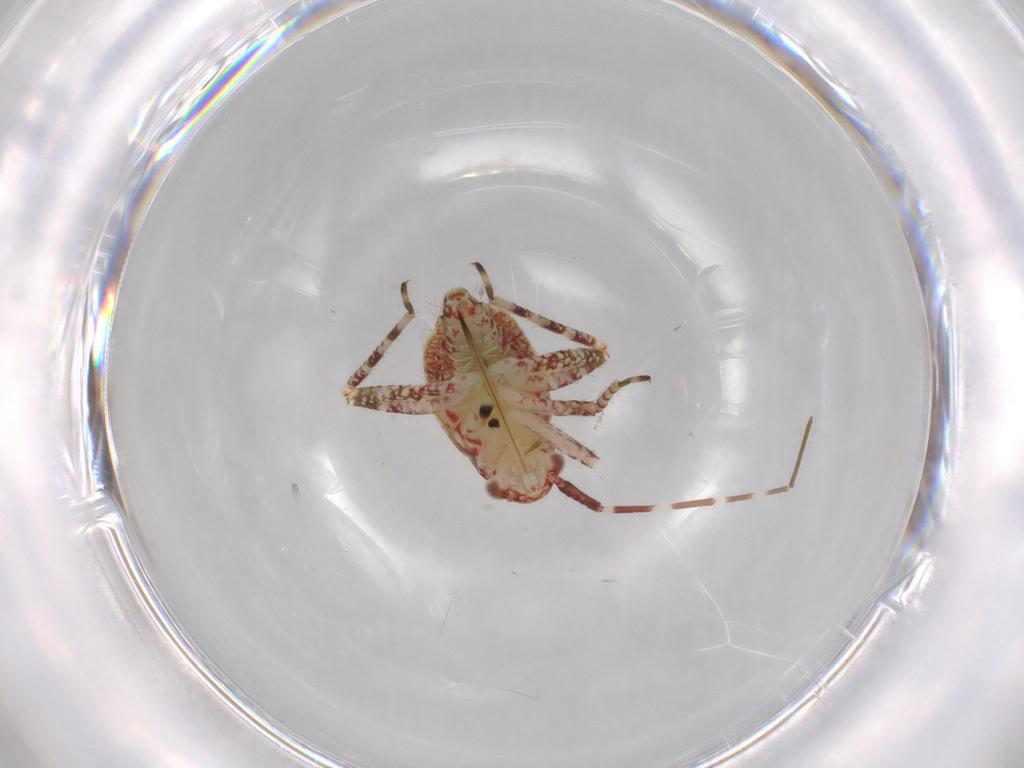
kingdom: Animalia
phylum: Arthropoda
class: Insecta
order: Hemiptera
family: Miridae
